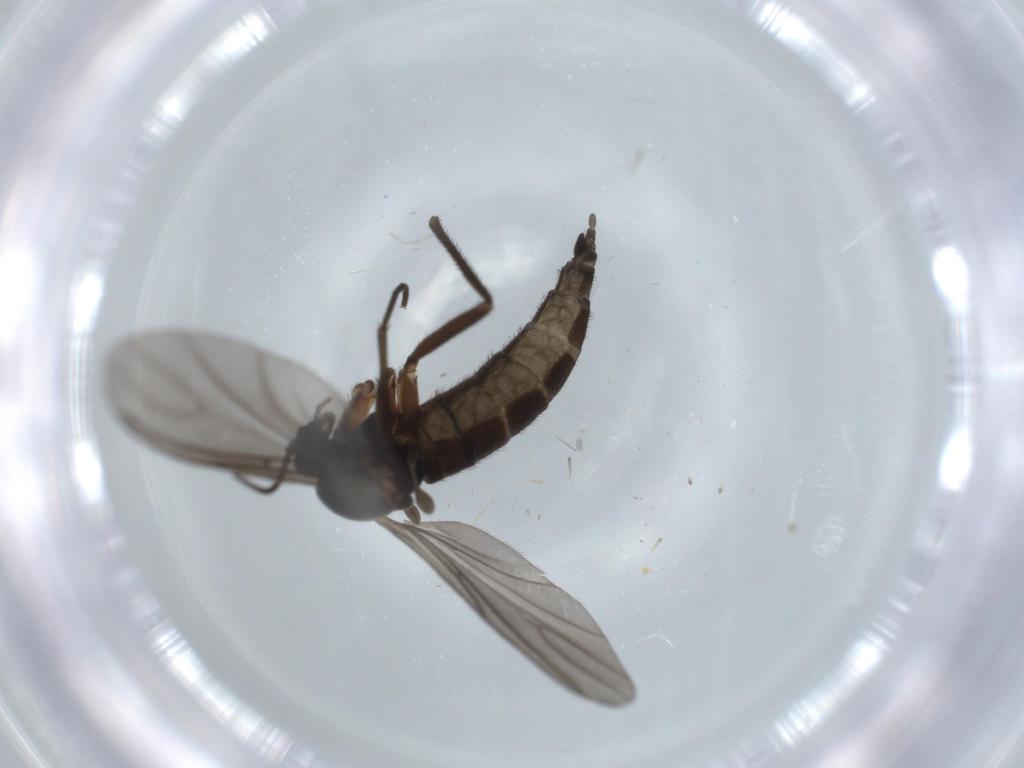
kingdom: Animalia
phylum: Arthropoda
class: Insecta
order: Diptera
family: Sciaridae
